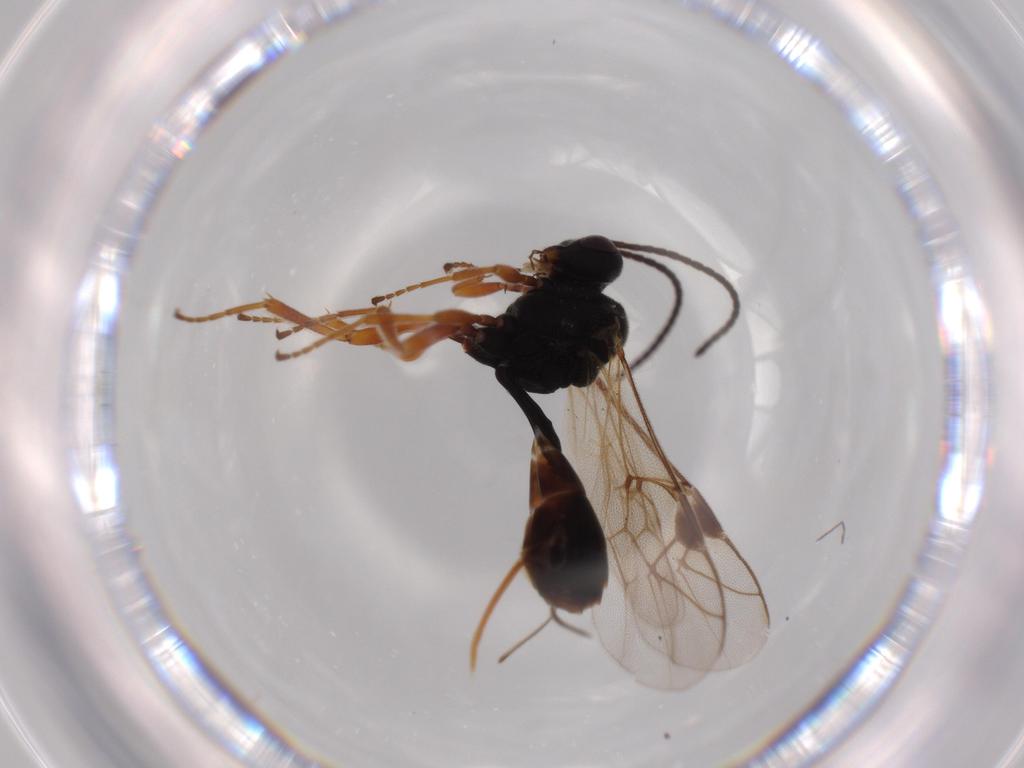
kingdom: Animalia
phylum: Arthropoda
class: Insecta
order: Hymenoptera
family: Ichneumonidae
